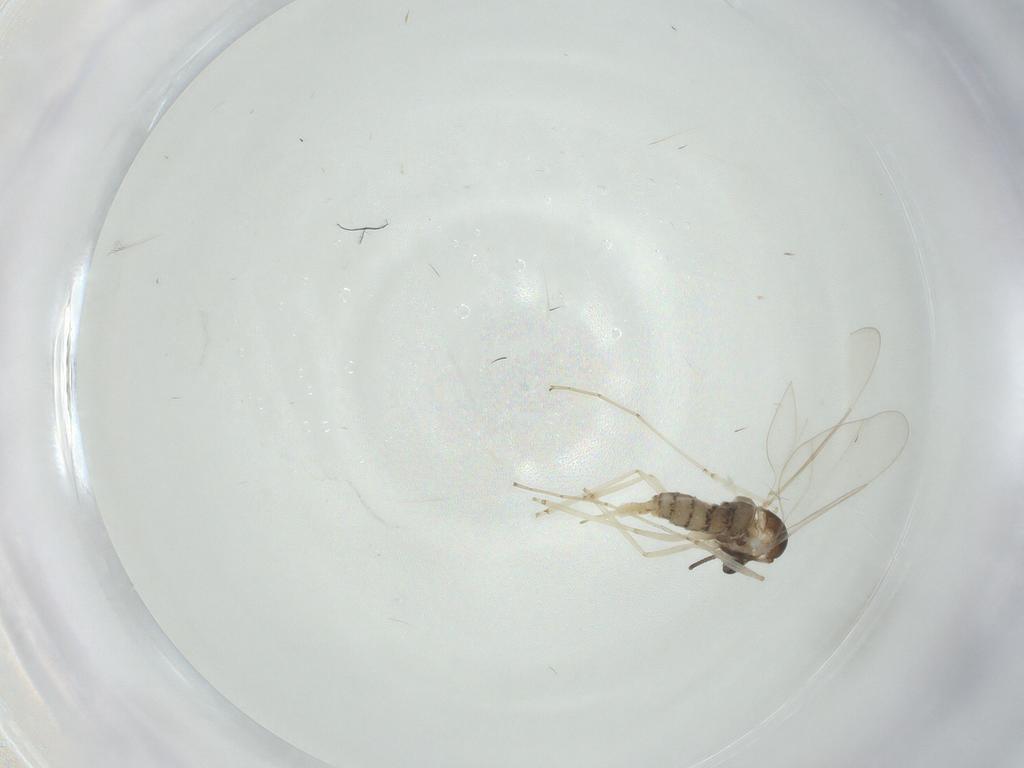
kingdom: Animalia
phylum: Arthropoda
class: Insecta
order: Diptera
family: Cecidomyiidae
